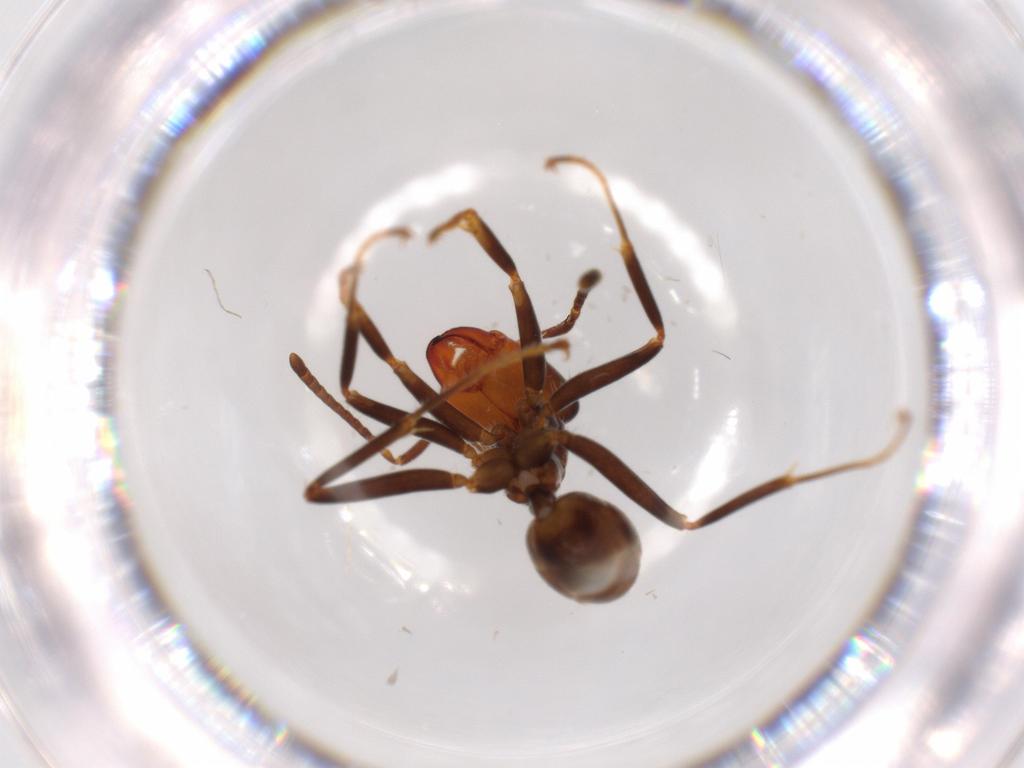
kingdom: Animalia
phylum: Arthropoda
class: Insecta
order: Hymenoptera
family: Formicidae
